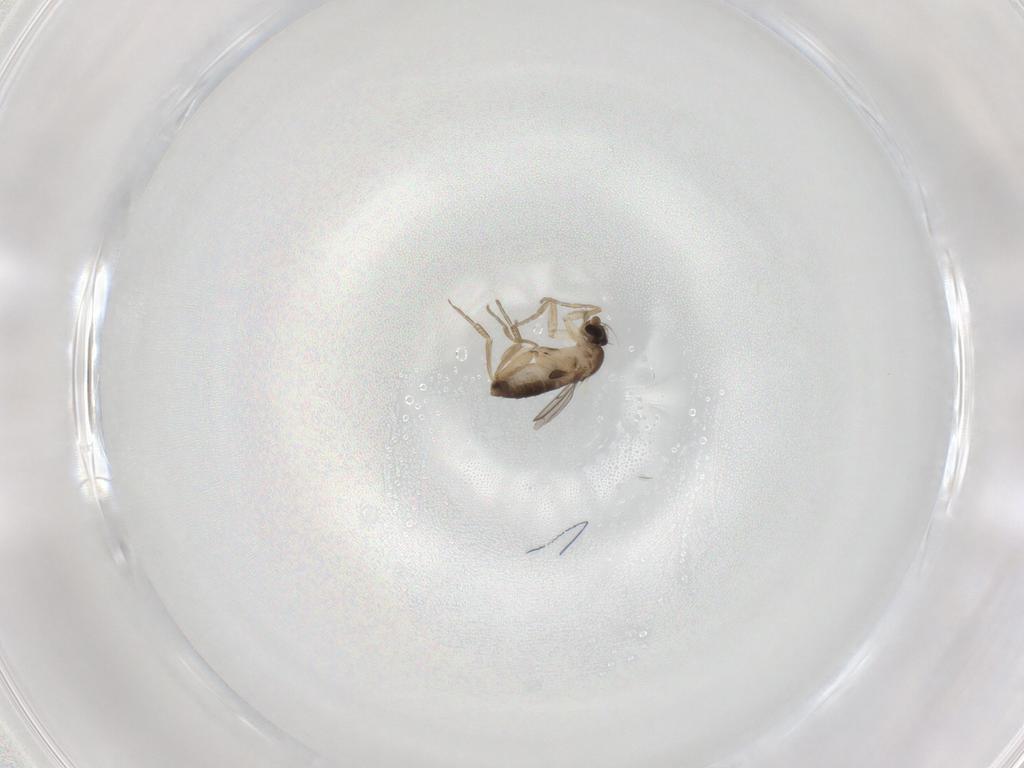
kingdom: Animalia
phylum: Arthropoda
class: Insecta
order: Diptera
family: Phoridae
